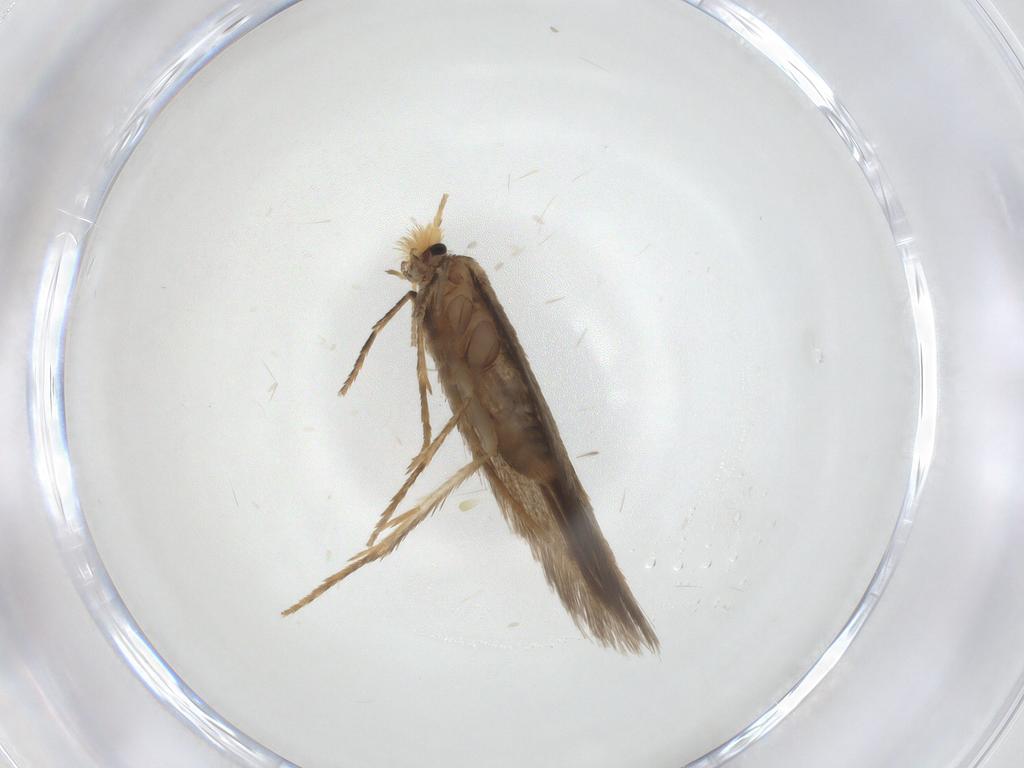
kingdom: Animalia
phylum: Arthropoda
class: Insecta
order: Lepidoptera
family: Nepticulidae
